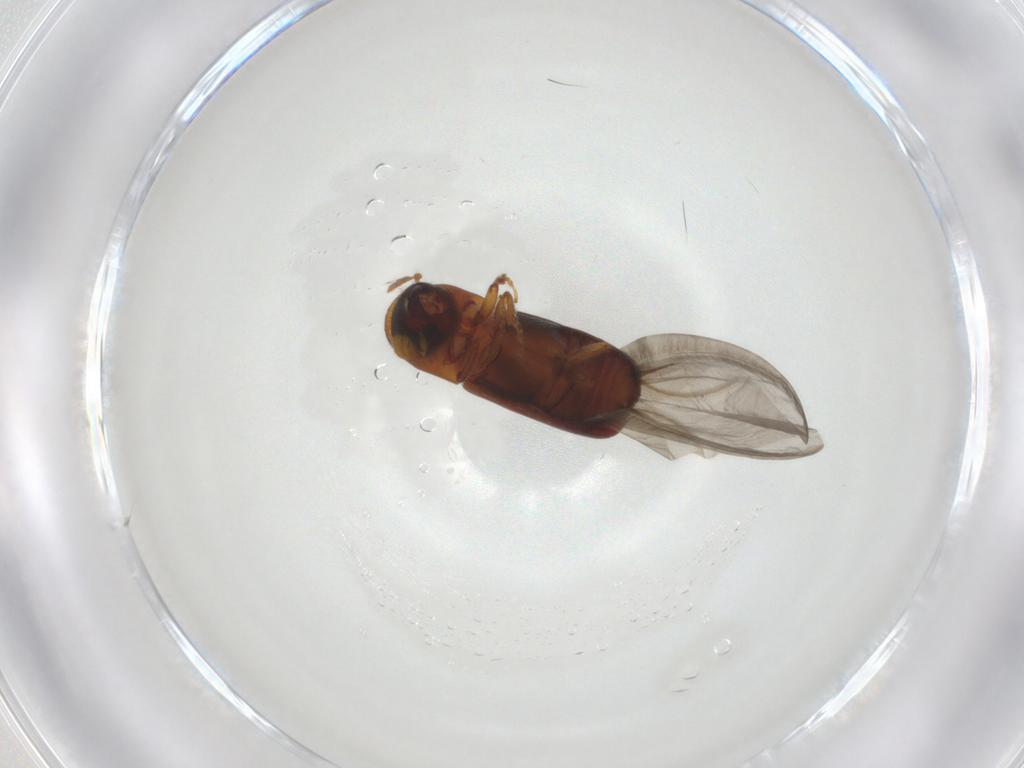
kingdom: Animalia
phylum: Arthropoda
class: Insecta
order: Coleoptera
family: Curculionidae
